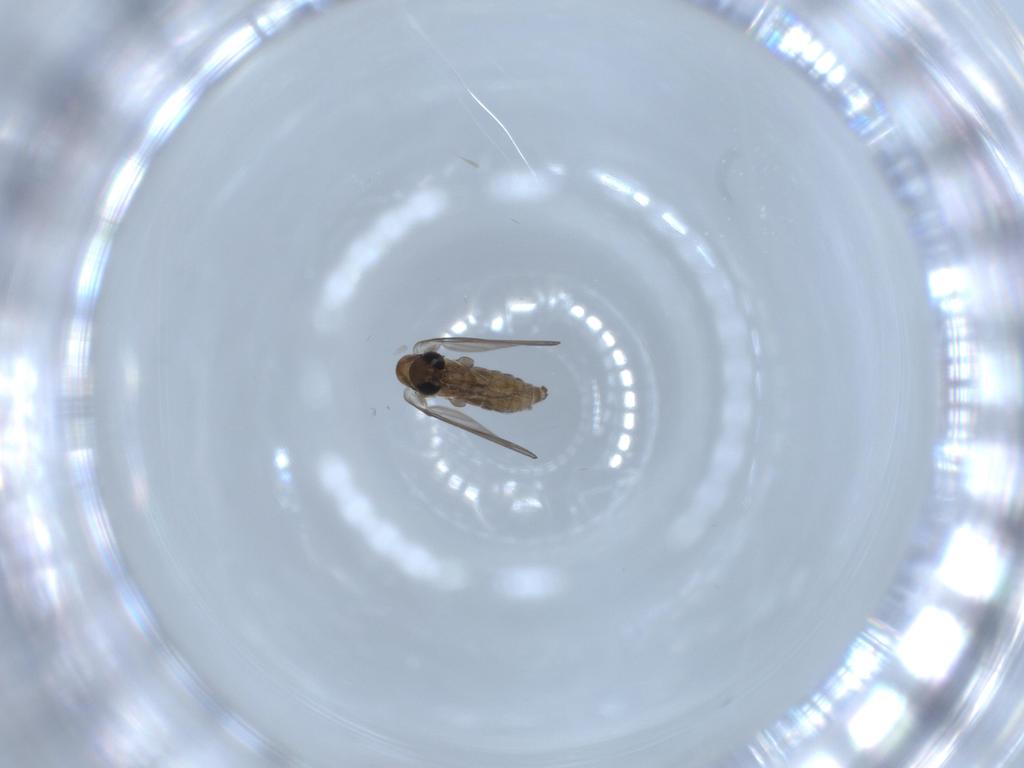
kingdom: Animalia
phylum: Arthropoda
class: Insecta
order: Diptera
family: Psychodidae
